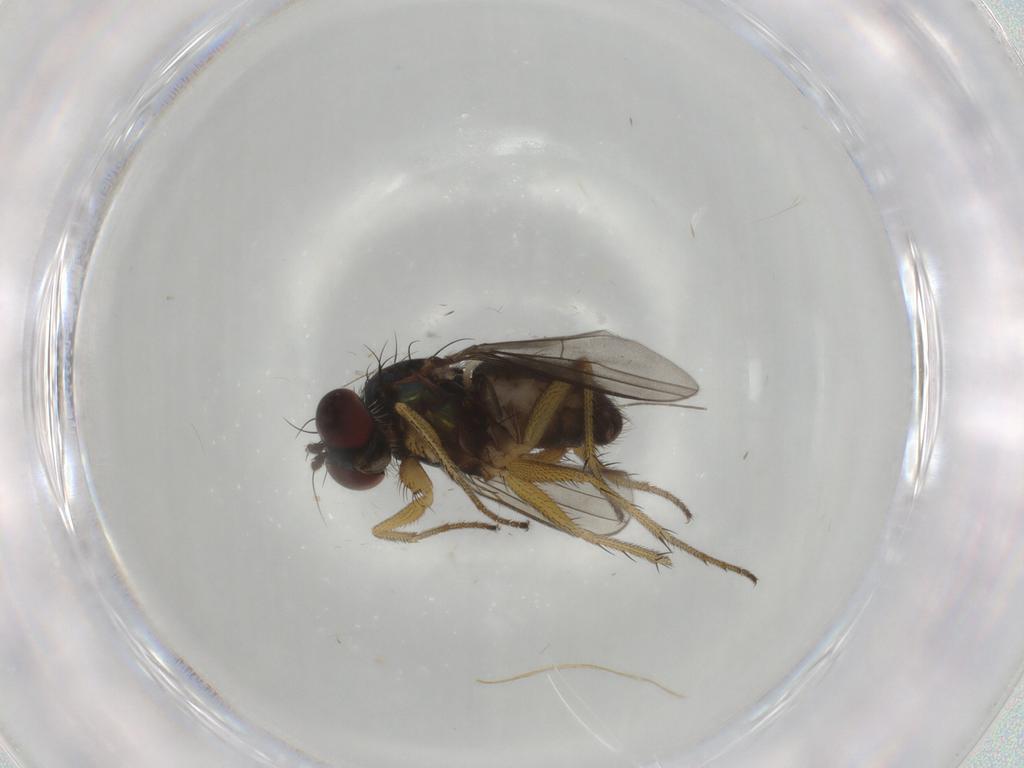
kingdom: Animalia
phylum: Arthropoda
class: Insecta
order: Diptera
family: Dolichopodidae
